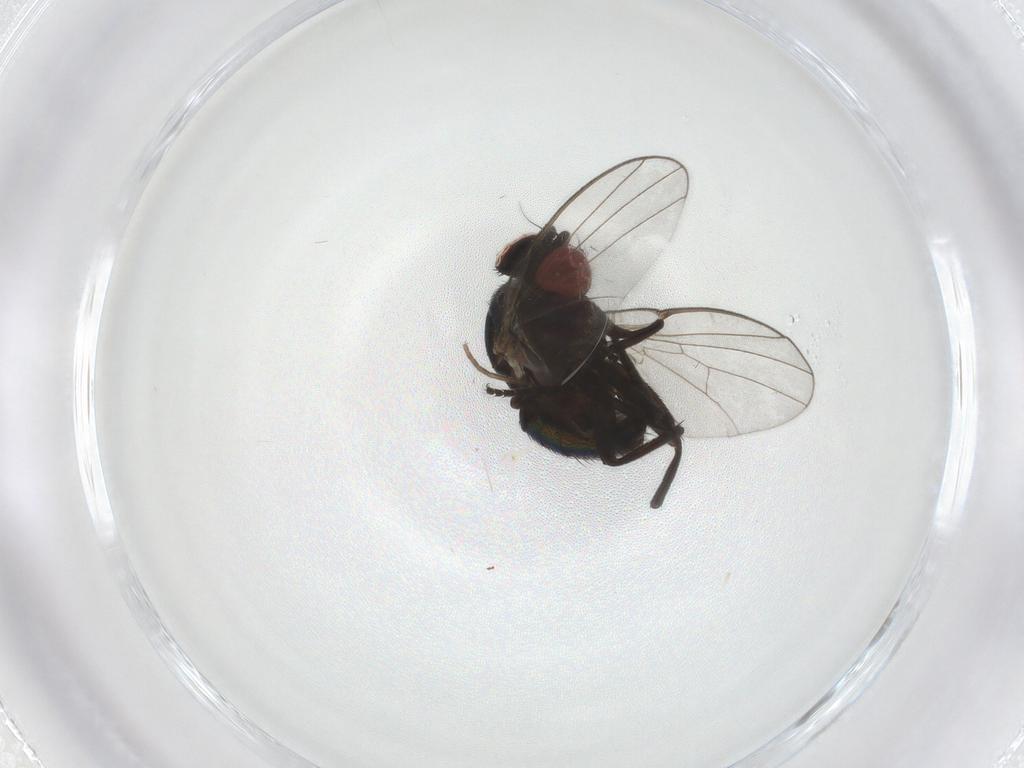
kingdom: Animalia
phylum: Arthropoda
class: Insecta
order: Diptera
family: Agromyzidae
